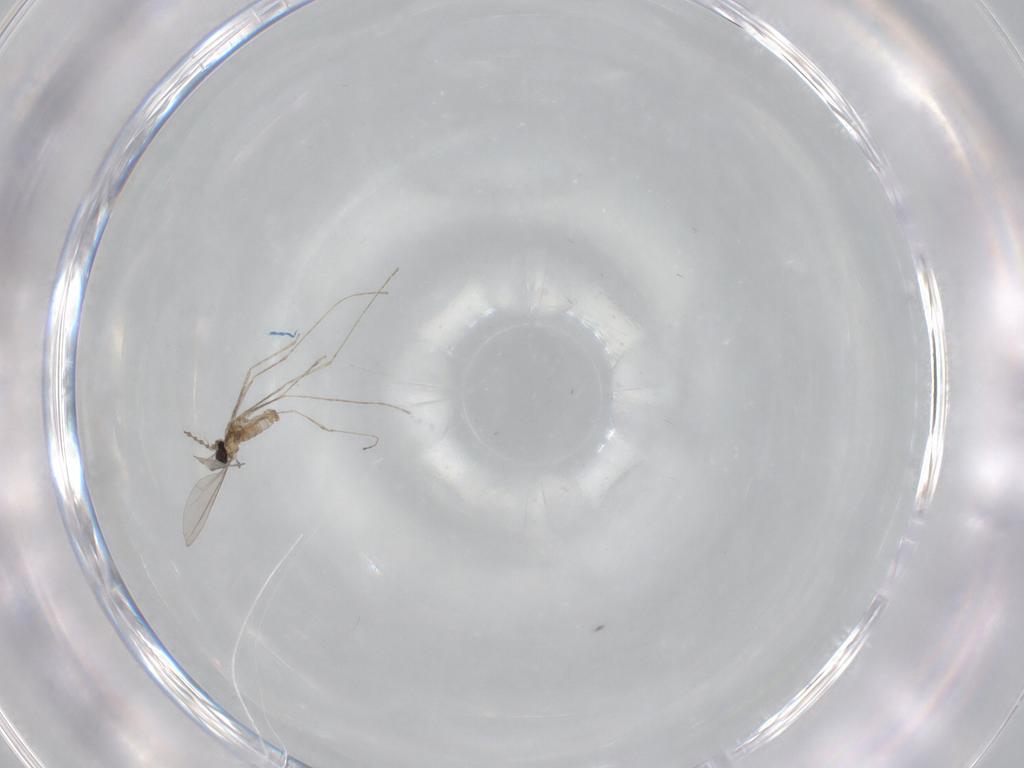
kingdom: Animalia
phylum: Arthropoda
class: Insecta
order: Diptera
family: Cecidomyiidae
